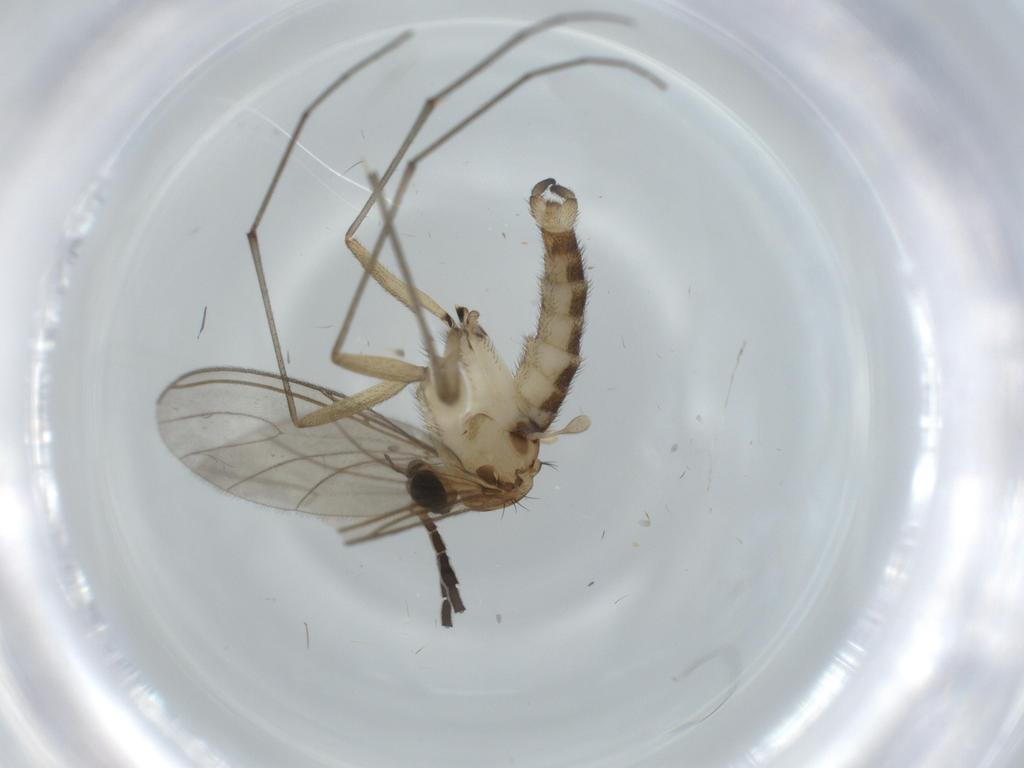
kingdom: Animalia
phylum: Arthropoda
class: Insecta
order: Diptera
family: Sciaridae
